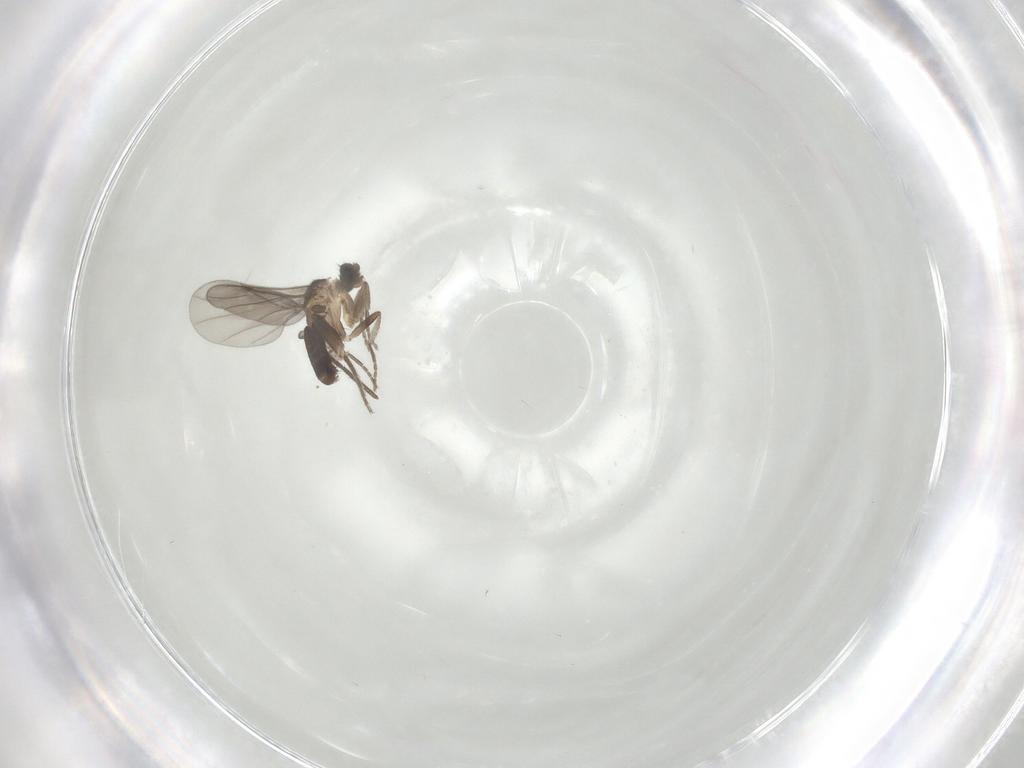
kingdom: Animalia
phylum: Arthropoda
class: Insecta
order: Diptera
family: Phoridae
